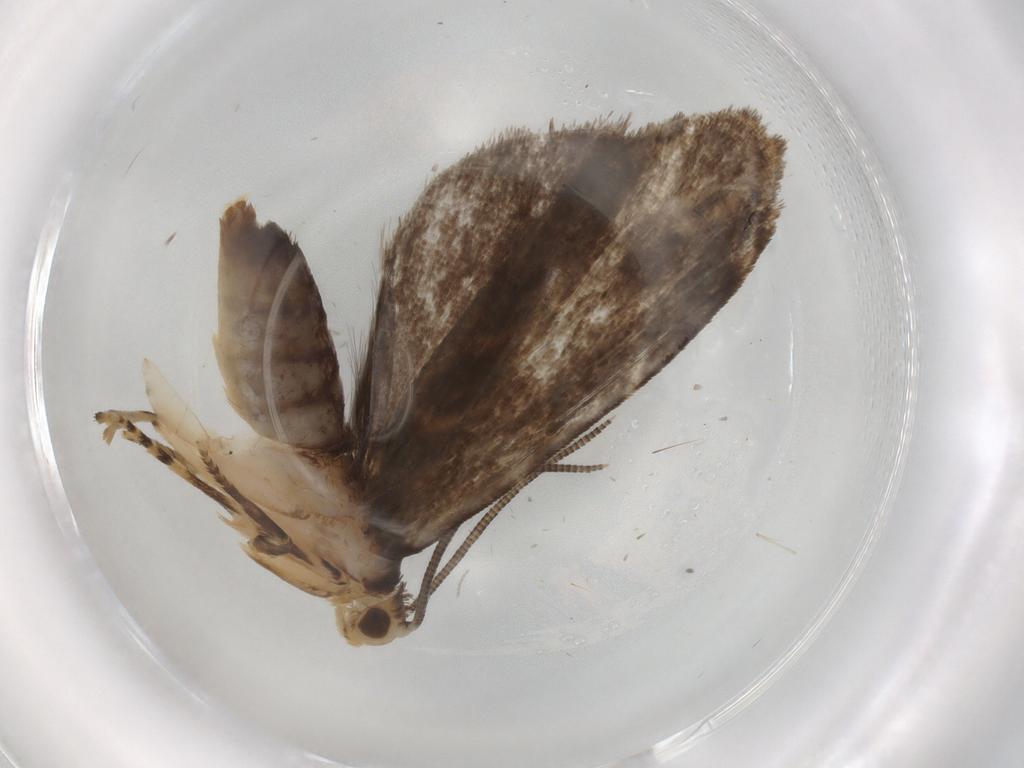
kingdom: Animalia
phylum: Arthropoda
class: Insecta
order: Lepidoptera
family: Dryadaulidae
